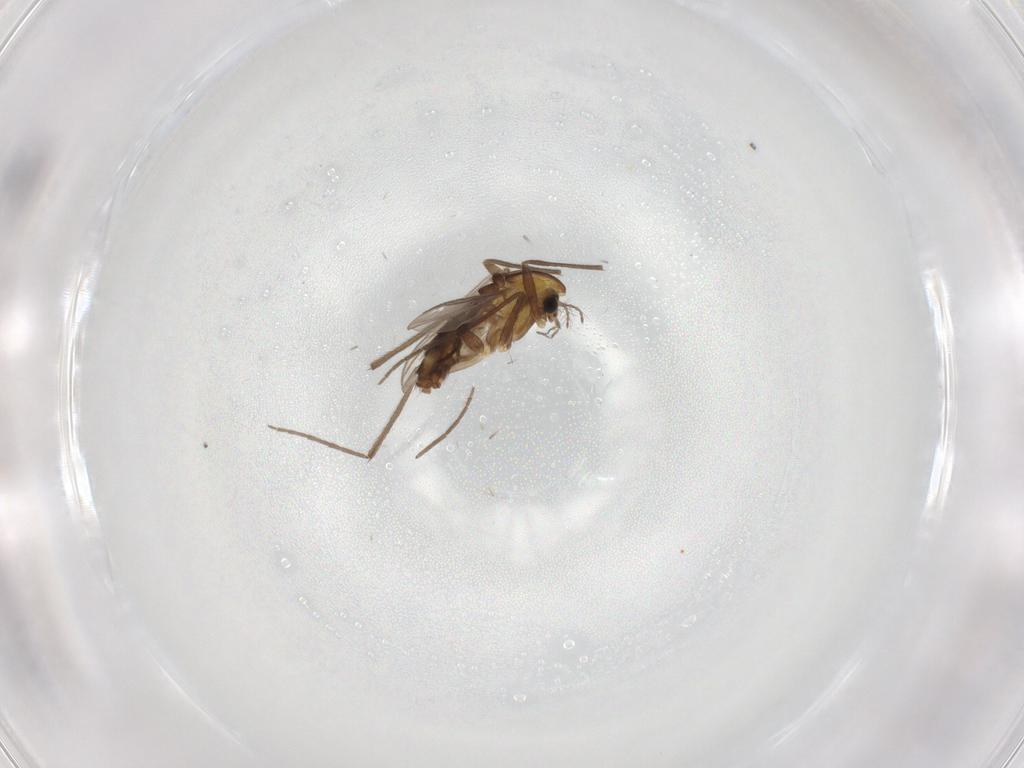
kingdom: Animalia
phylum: Arthropoda
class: Insecta
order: Diptera
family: Chironomidae
